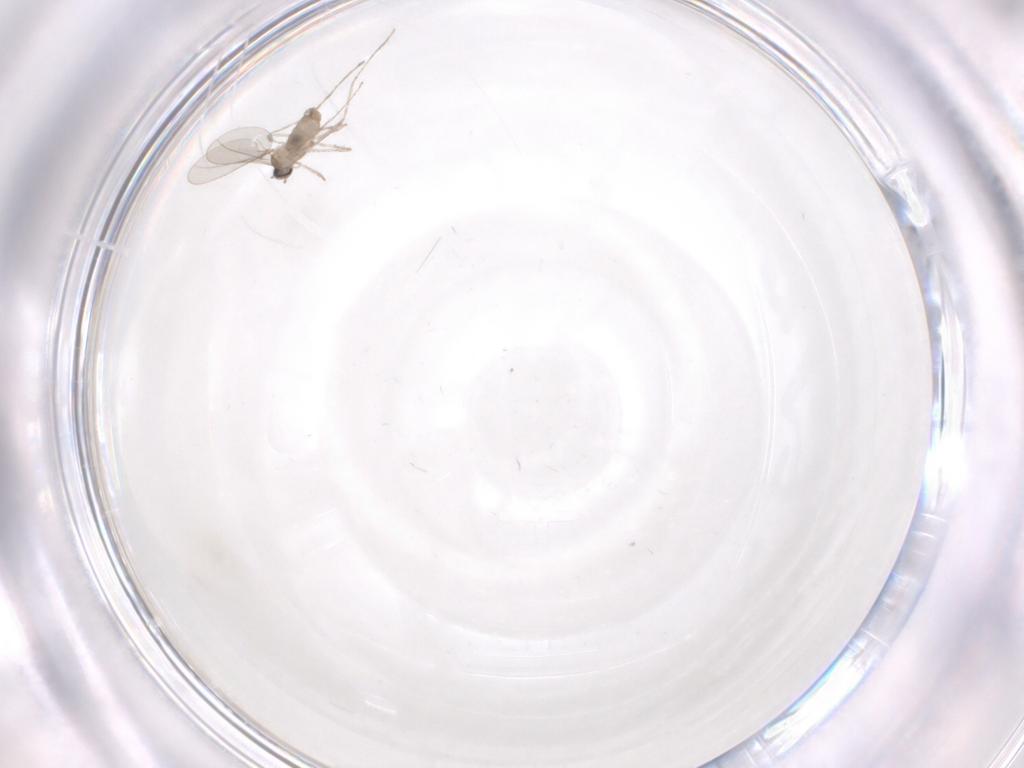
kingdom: Animalia
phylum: Arthropoda
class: Insecta
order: Diptera
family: Cecidomyiidae
